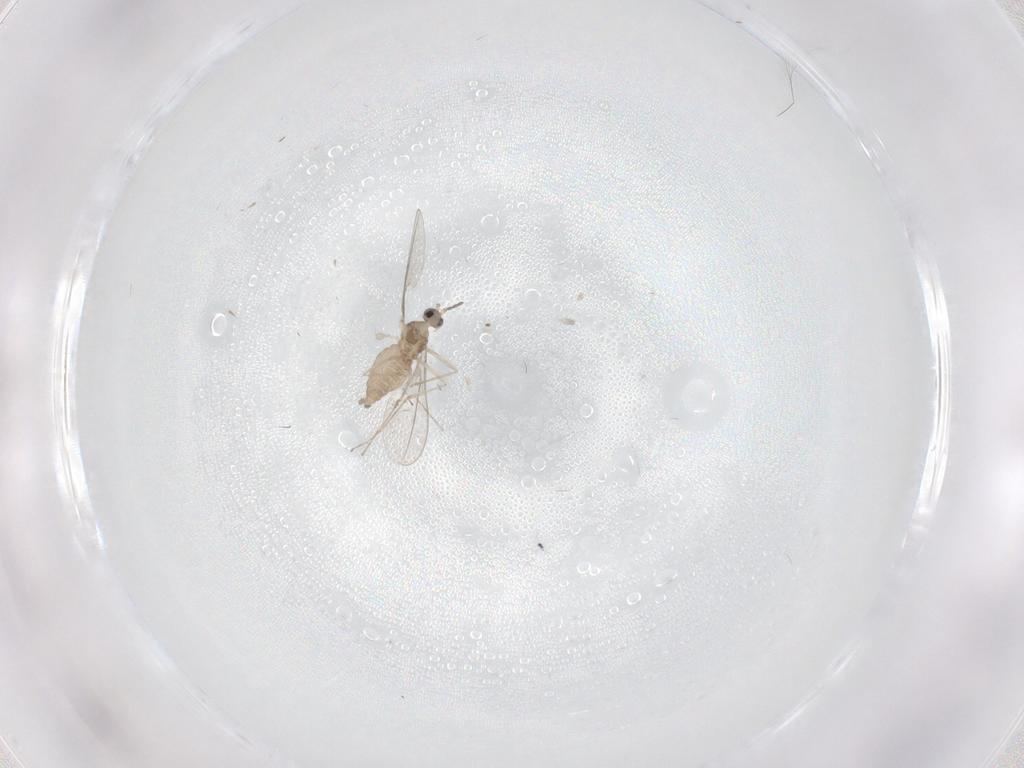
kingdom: Animalia
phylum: Arthropoda
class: Insecta
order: Diptera
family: Cecidomyiidae
